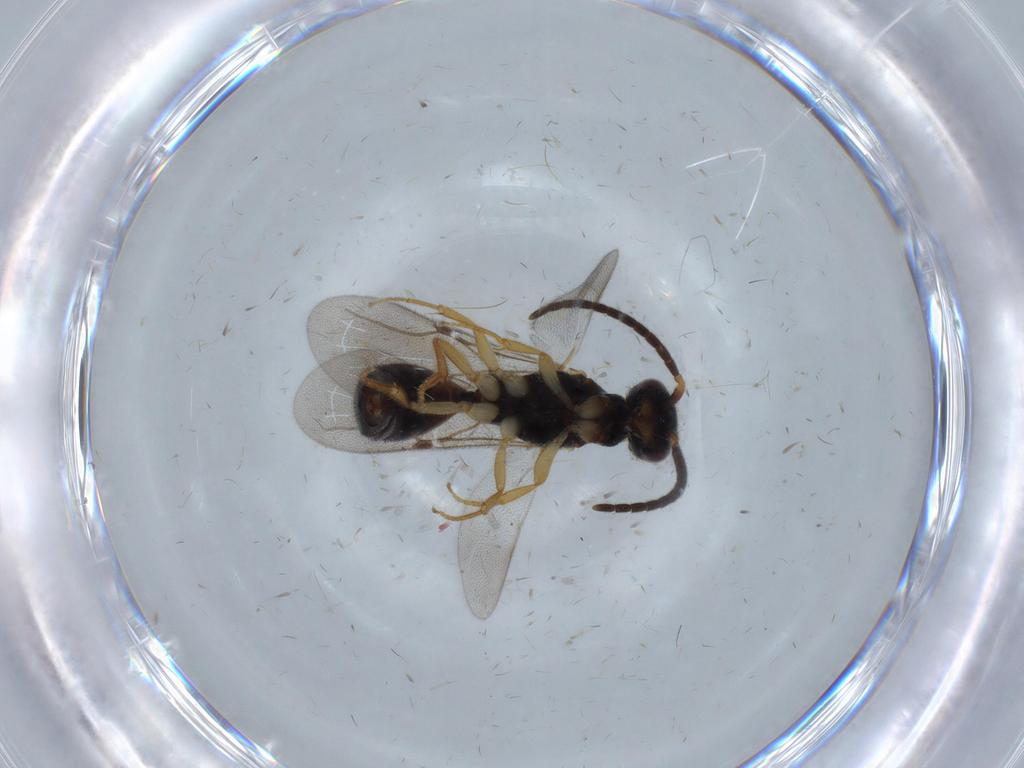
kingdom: Animalia
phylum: Arthropoda
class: Insecta
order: Hymenoptera
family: Bethylidae
